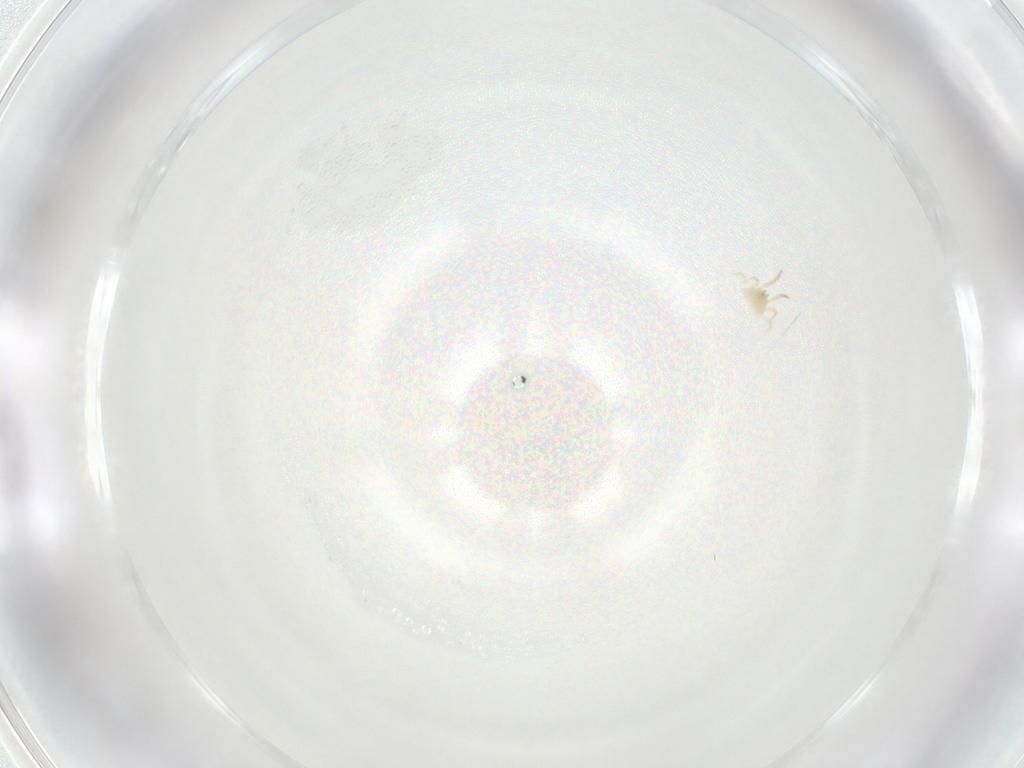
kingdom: Animalia
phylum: Arthropoda
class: Arachnida
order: Mesostigmata
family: Phytoseiidae
